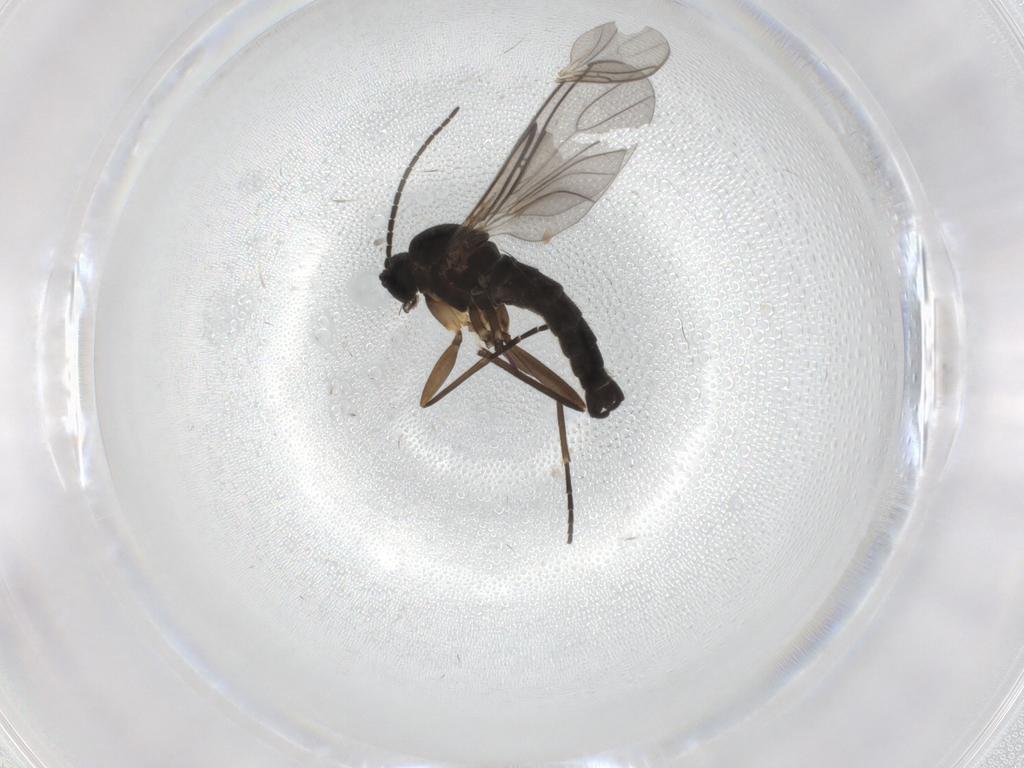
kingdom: Animalia
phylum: Arthropoda
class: Insecta
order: Diptera
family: Sciaridae
